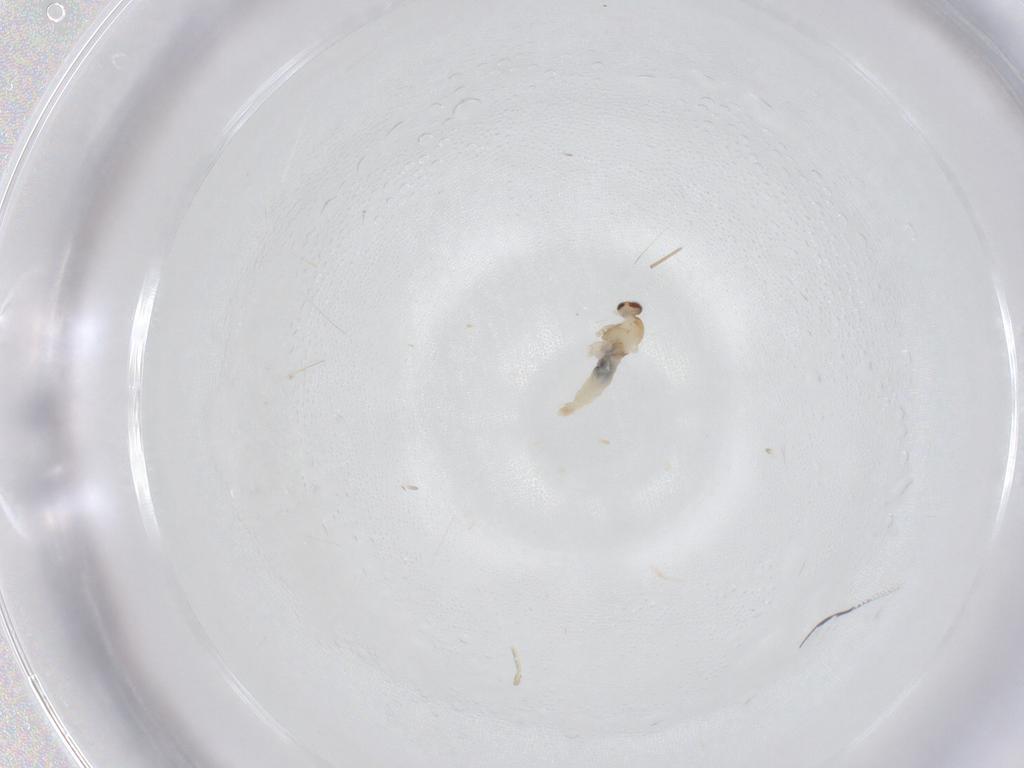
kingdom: Animalia
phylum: Arthropoda
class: Insecta
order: Diptera
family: Cecidomyiidae
